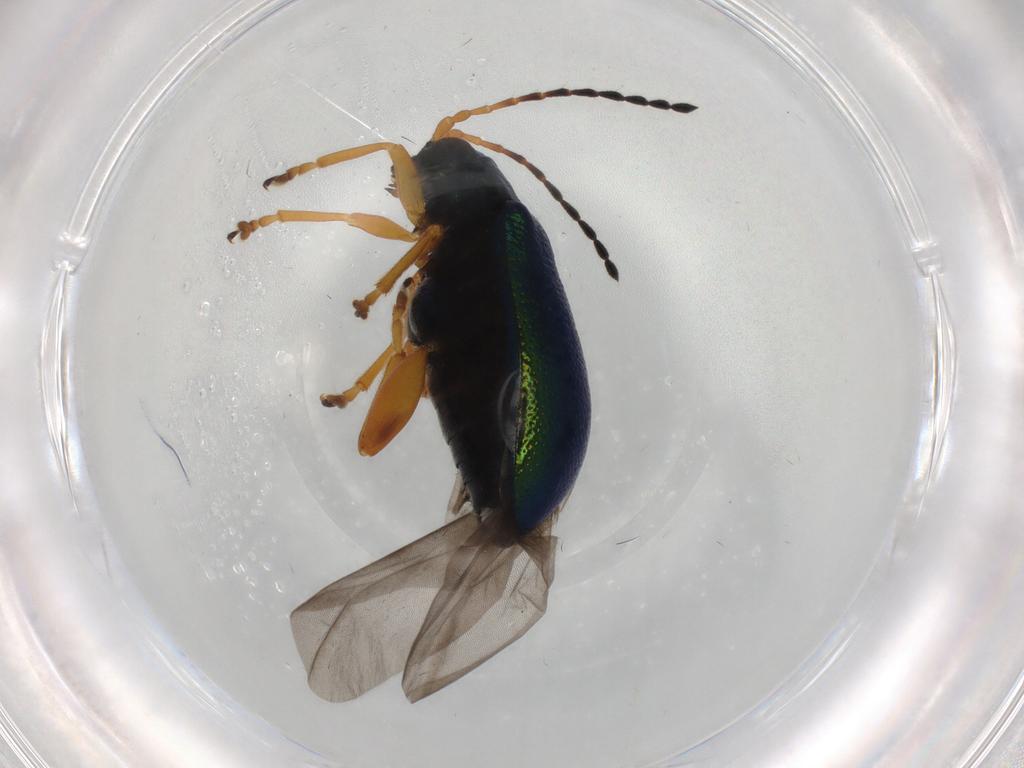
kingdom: Animalia
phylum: Arthropoda
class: Insecta
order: Coleoptera
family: Chrysomelidae
